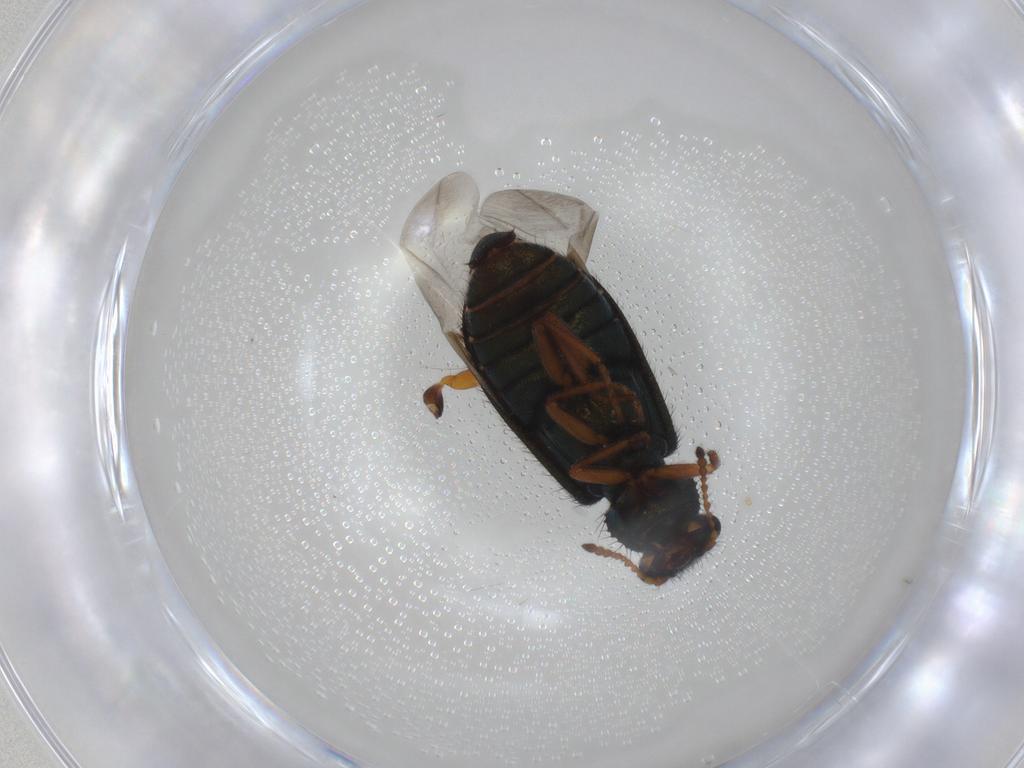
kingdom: Animalia
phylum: Arthropoda
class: Insecta
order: Coleoptera
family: Melyridae
